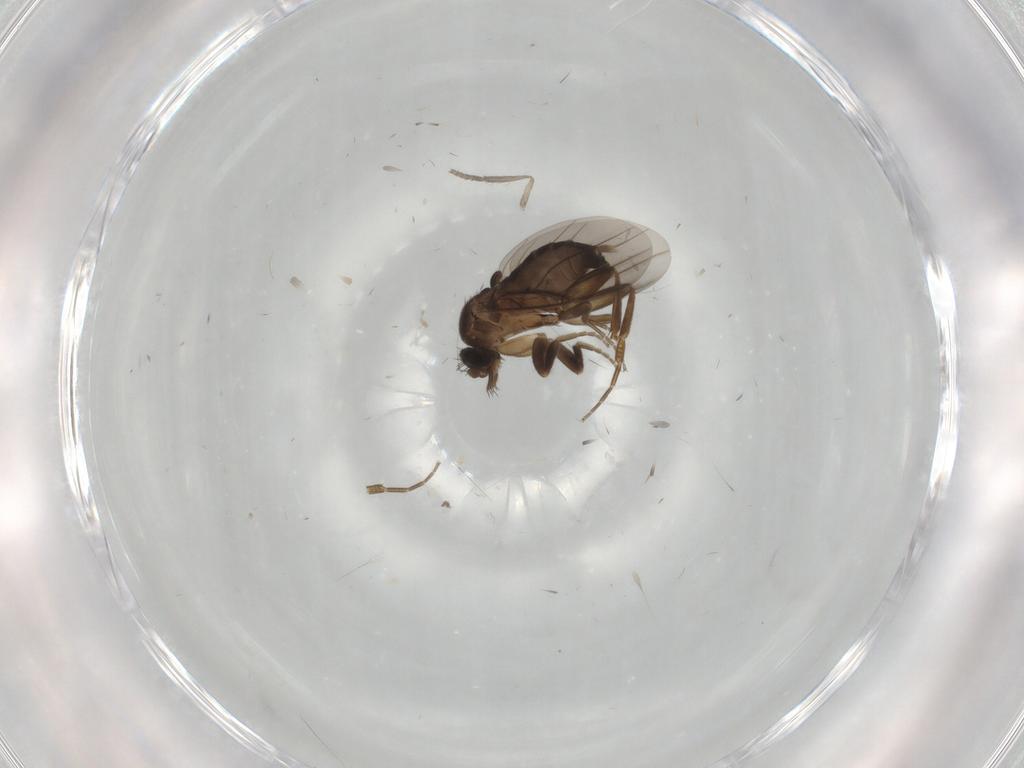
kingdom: Animalia
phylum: Arthropoda
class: Insecta
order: Diptera
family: Phoridae
